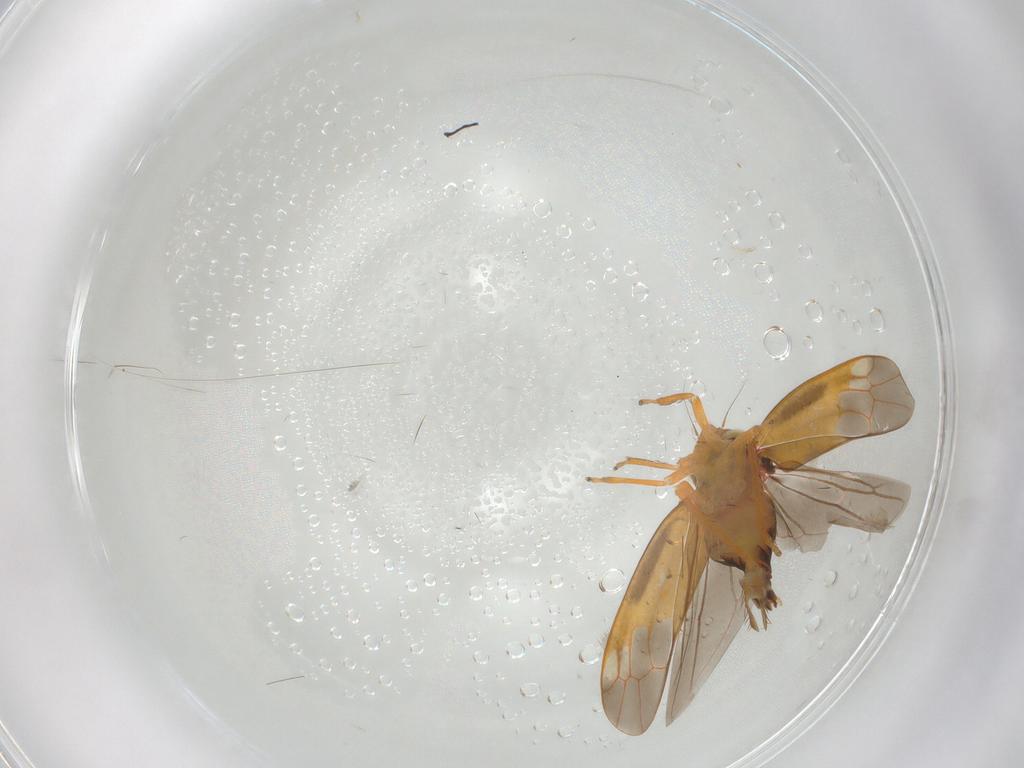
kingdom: Animalia
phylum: Arthropoda
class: Insecta
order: Hemiptera
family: Cicadellidae
